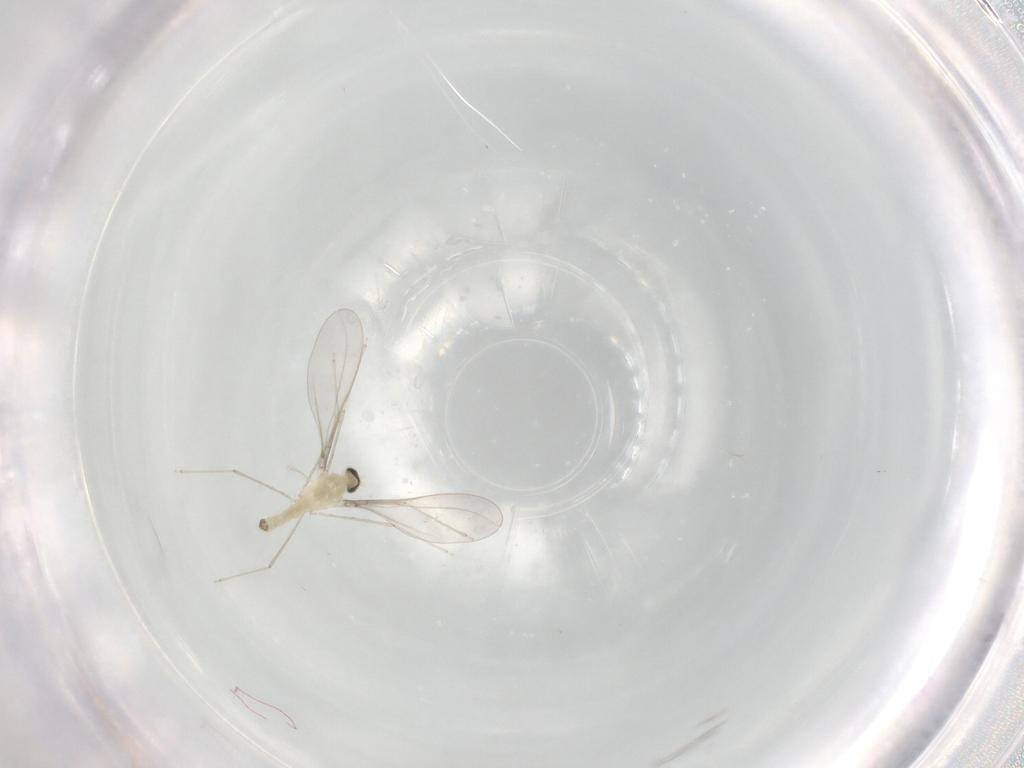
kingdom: Animalia
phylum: Arthropoda
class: Insecta
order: Diptera
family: Cecidomyiidae
